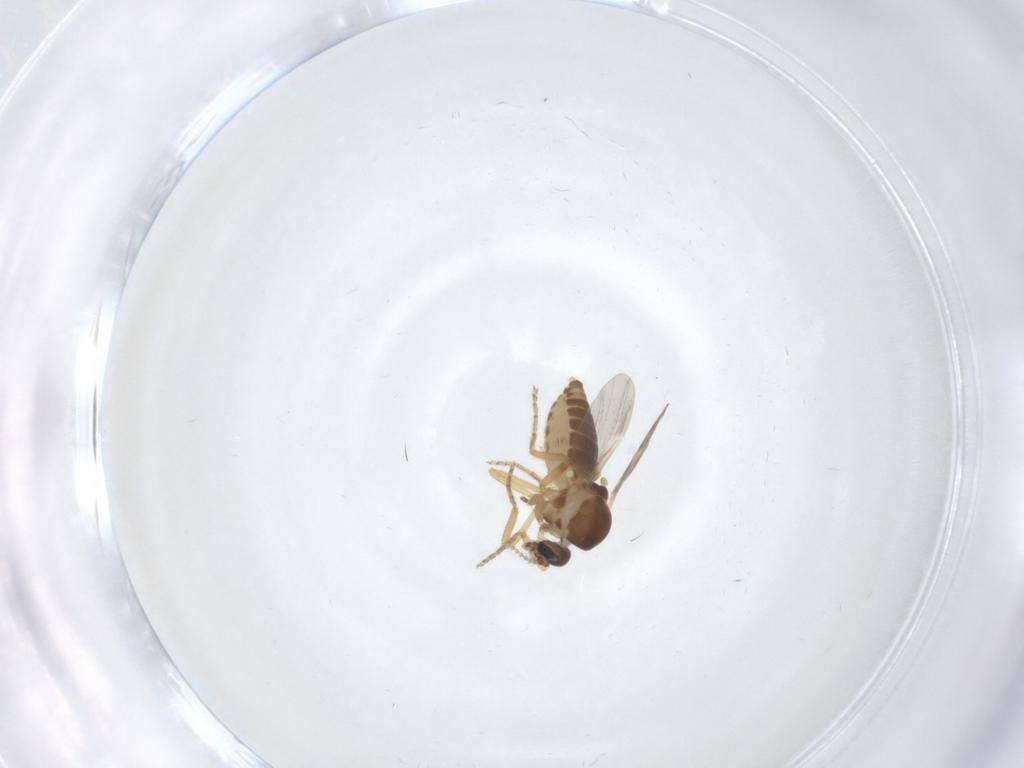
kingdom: Animalia
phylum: Arthropoda
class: Insecta
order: Diptera
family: Ceratopogonidae
